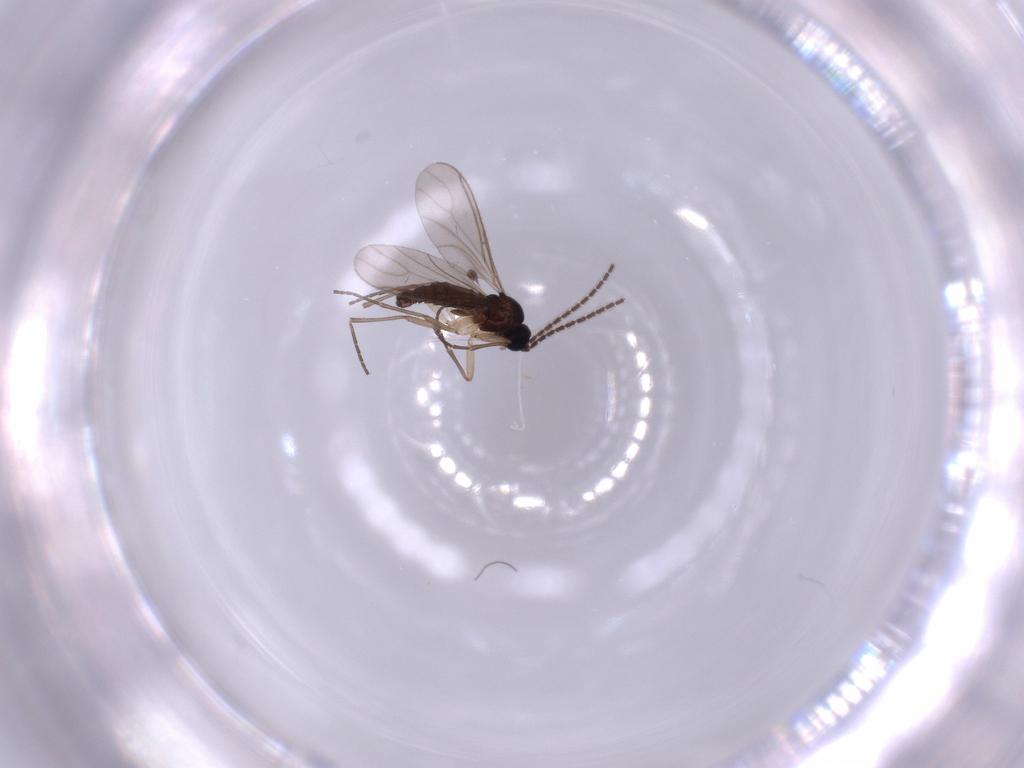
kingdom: Animalia
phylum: Arthropoda
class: Insecta
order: Diptera
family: Sciaridae
